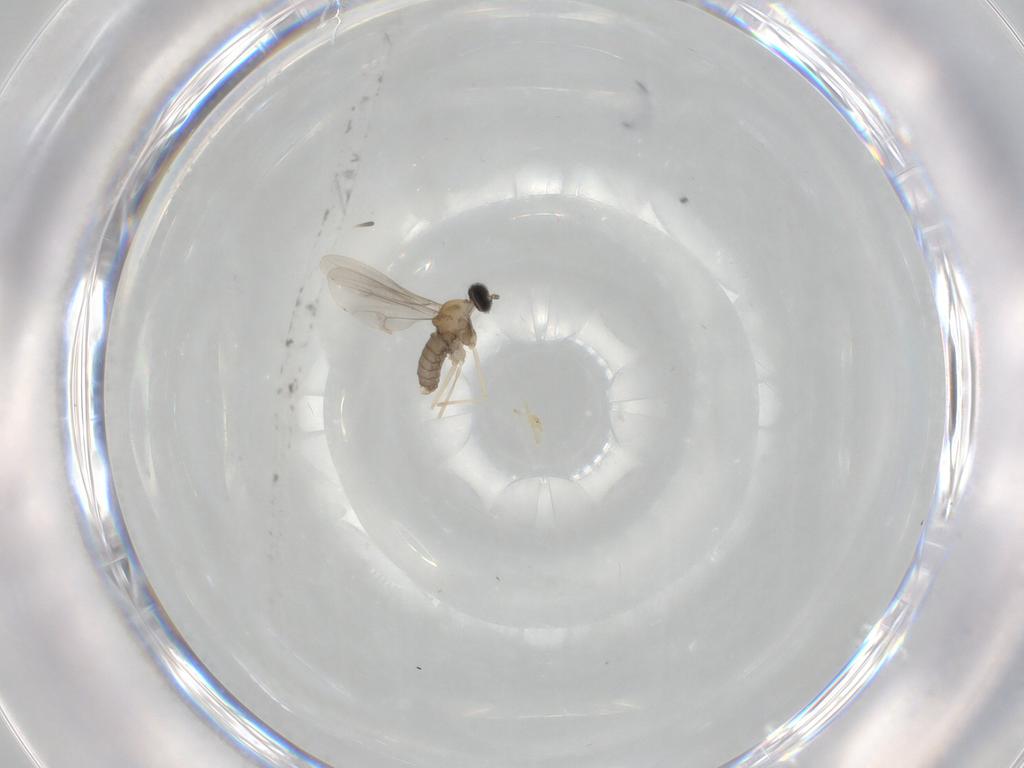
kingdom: Animalia
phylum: Arthropoda
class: Insecta
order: Diptera
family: Cecidomyiidae
